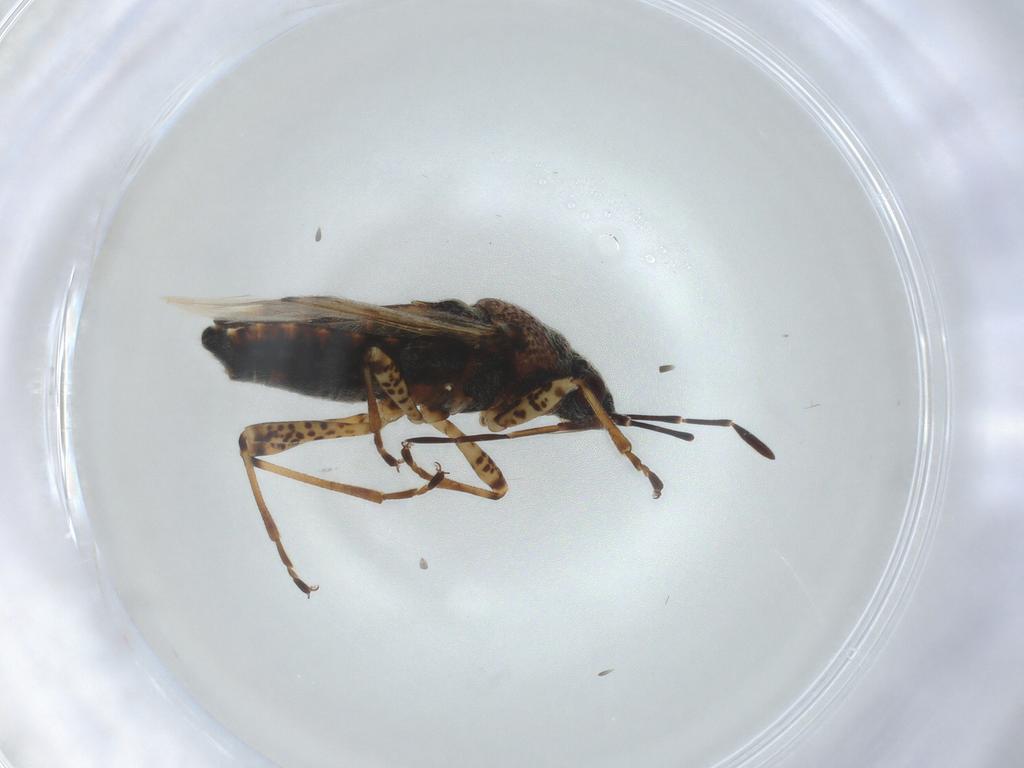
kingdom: Animalia
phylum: Arthropoda
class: Insecta
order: Hemiptera
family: Lygaeidae
